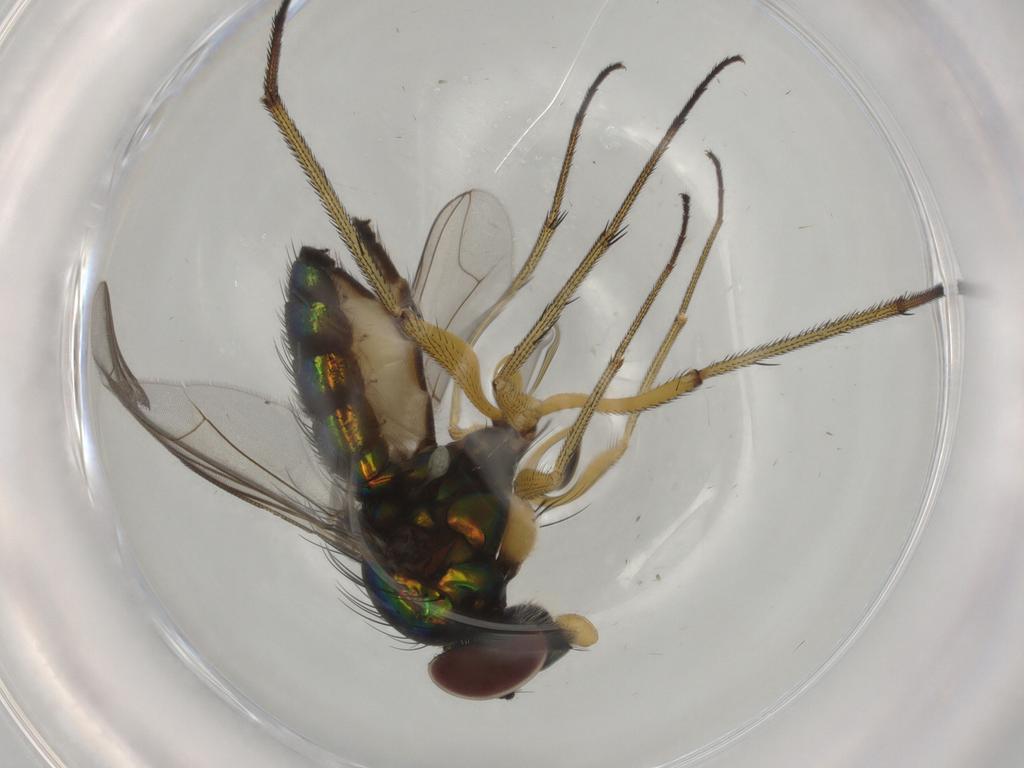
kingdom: Animalia
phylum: Arthropoda
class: Insecta
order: Diptera
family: Dolichopodidae
